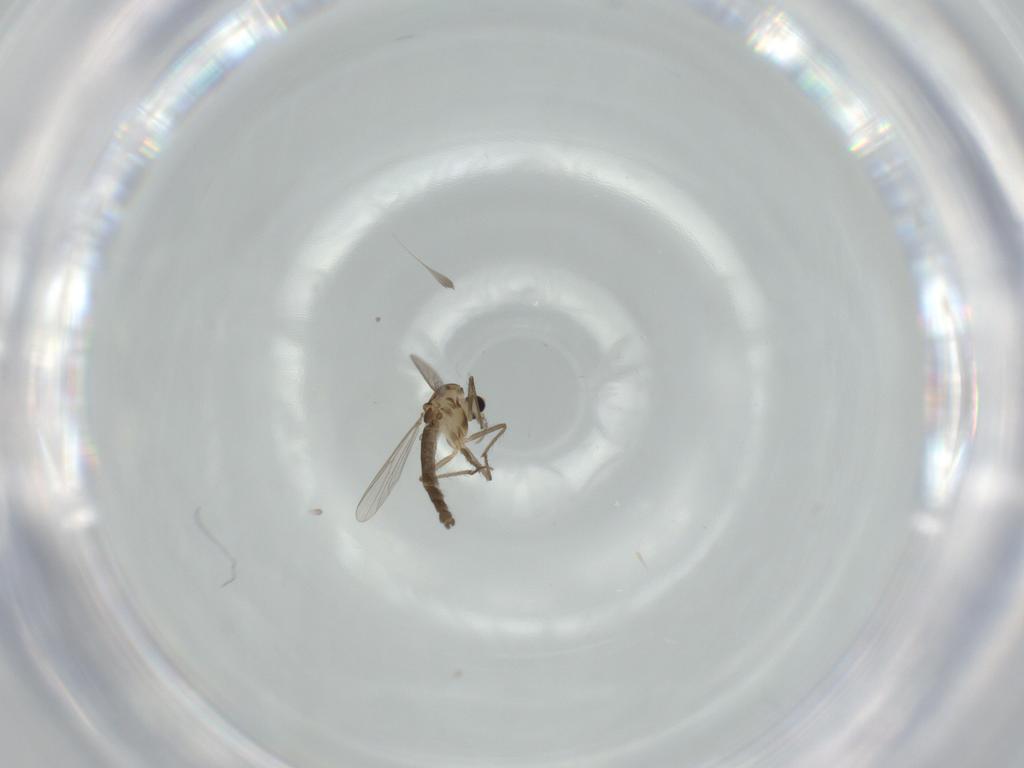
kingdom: Animalia
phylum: Arthropoda
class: Insecta
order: Diptera
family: Chironomidae
